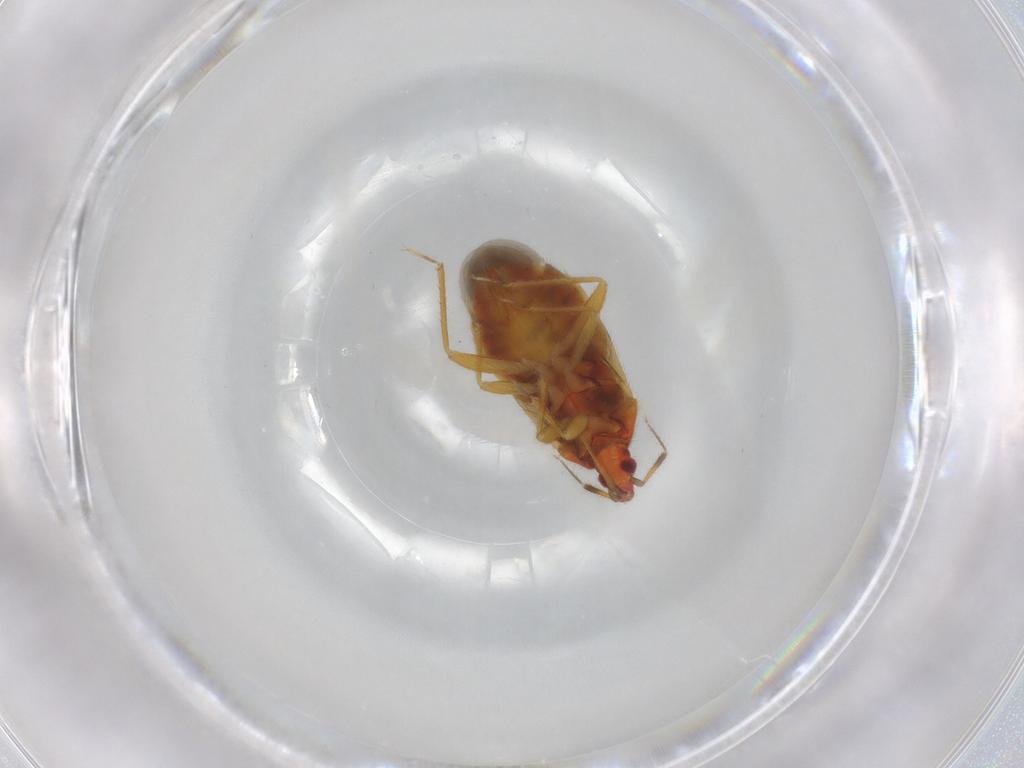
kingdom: Animalia
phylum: Arthropoda
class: Insecta
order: Hemiptera
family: Lasiochilidae
